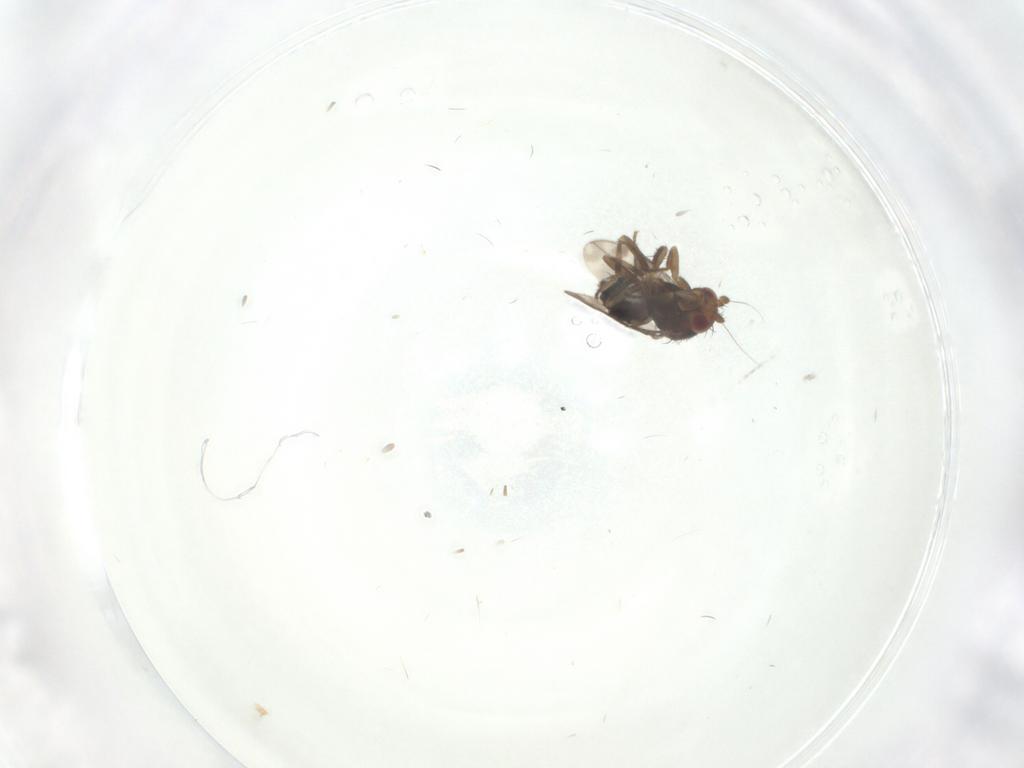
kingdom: Animalia
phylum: Arthropoda
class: Insecta
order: Diptera
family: Sphaeroceridae
